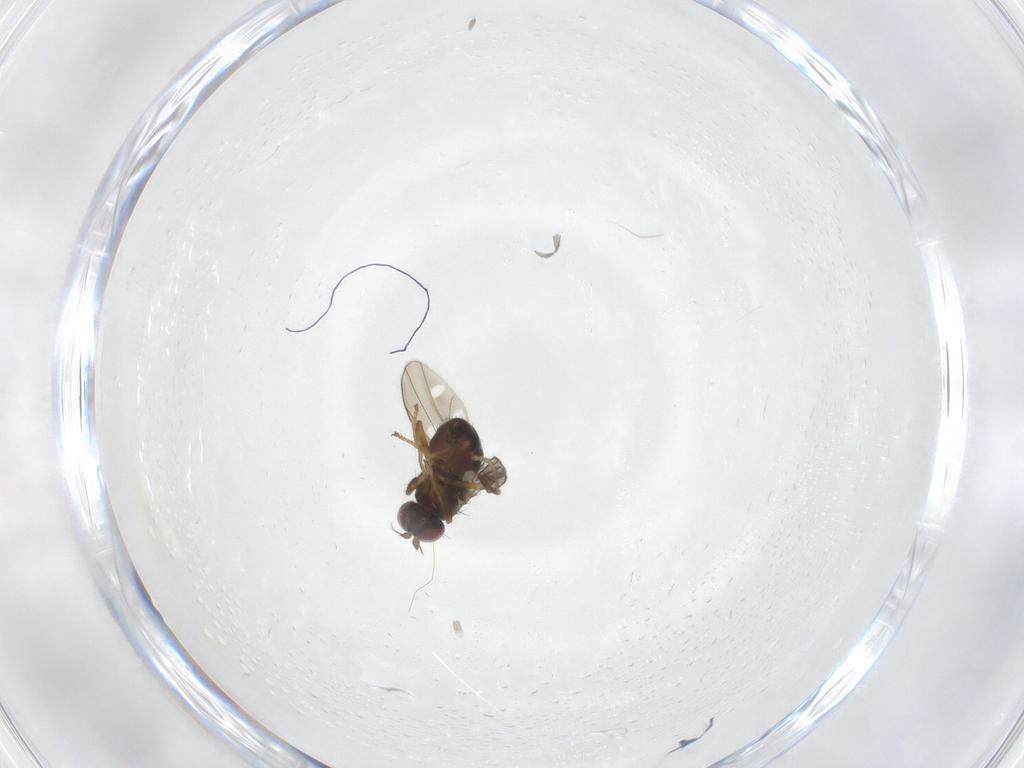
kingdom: Animalia
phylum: Arthropoda
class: Insecta
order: Diptera
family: Ephydridae
